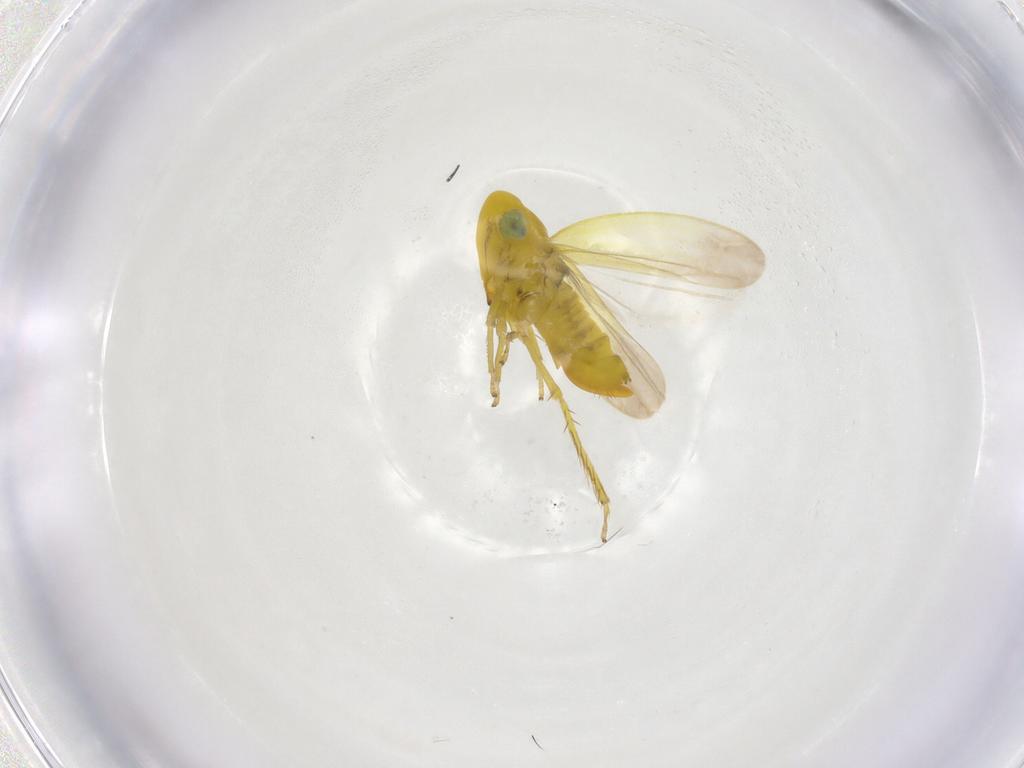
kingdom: Animalia
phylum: Arthropoda
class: Insecta
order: Hemiptera
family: Cicadellidae
